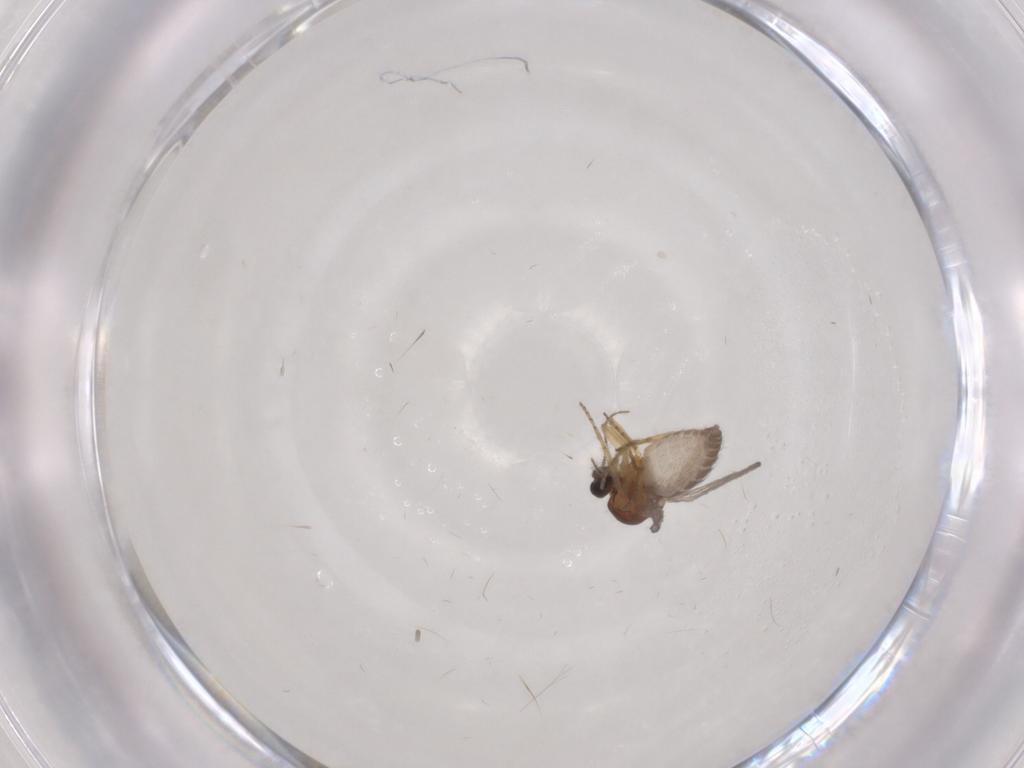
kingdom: Animalia
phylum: Arthropoda
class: Insecta
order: Diptera
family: Ceratopogonidae
